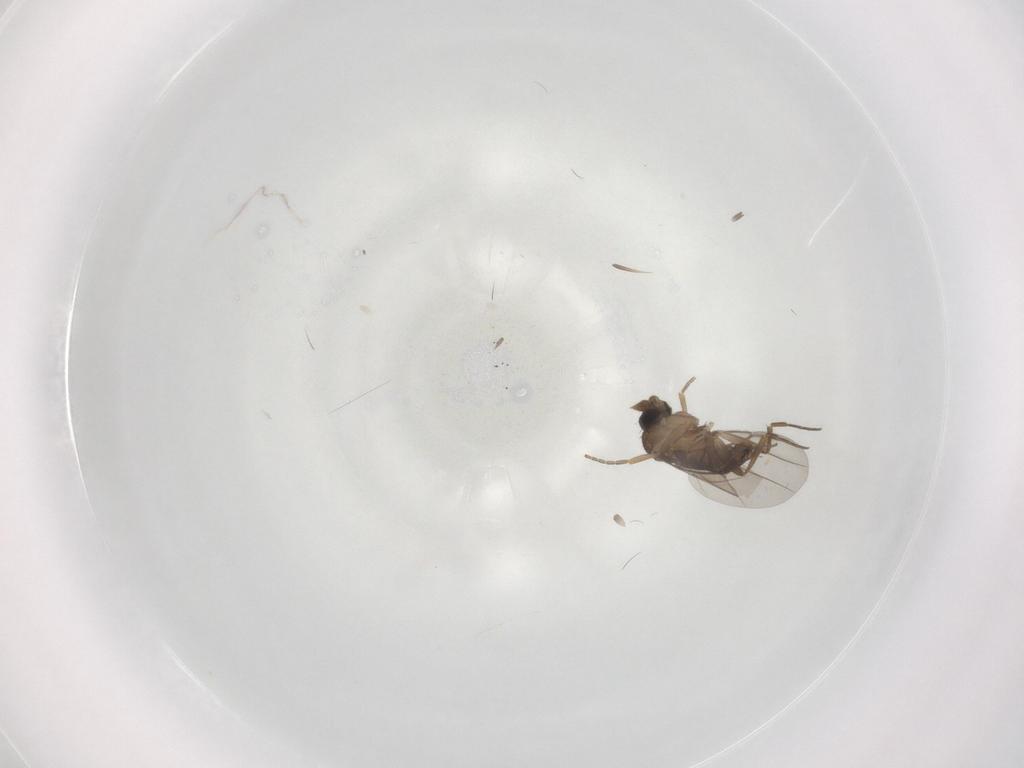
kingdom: Animalia
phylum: Arthropoda
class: Insecta
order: Diptera
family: Phoridae
